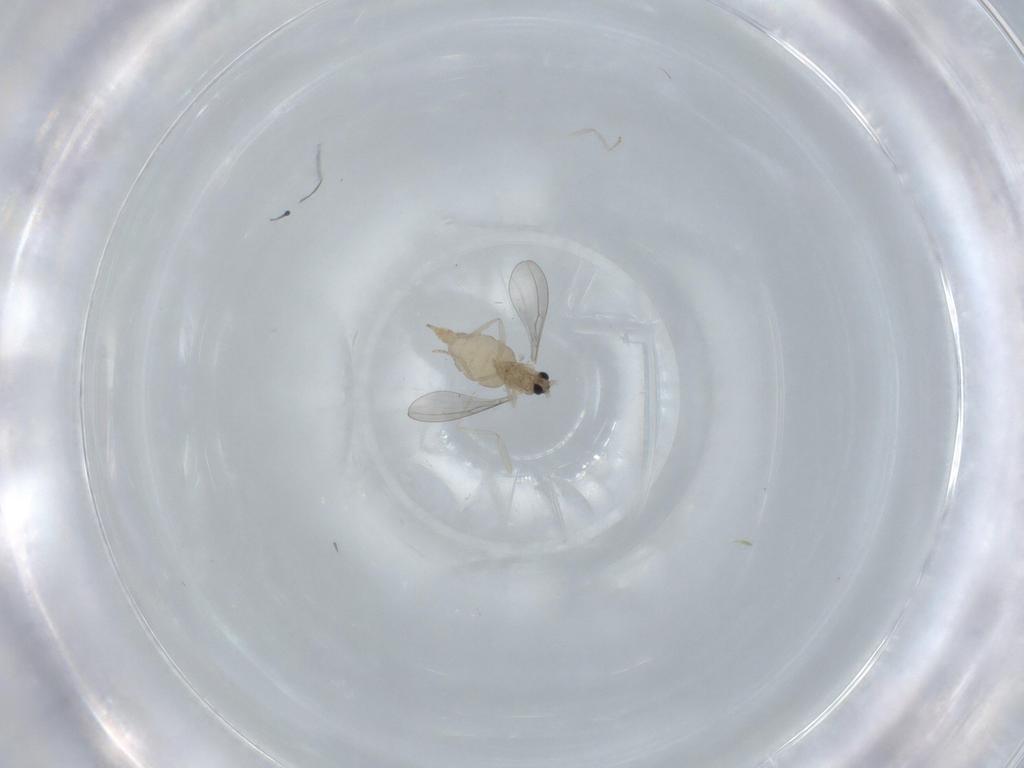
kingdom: Animalia
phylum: Arthropoda
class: Insecta
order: Diptera
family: Cecidomyiidae
